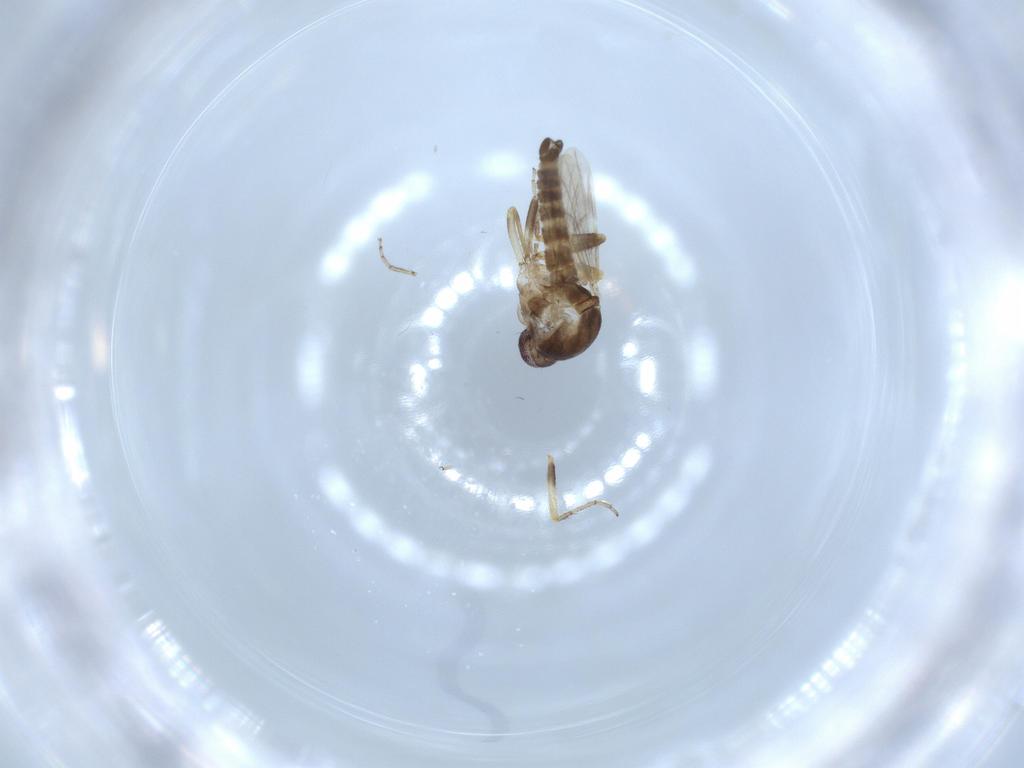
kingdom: Animalia
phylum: Arthropoda
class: Insecta
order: Diptera
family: Ceratopogonidae
